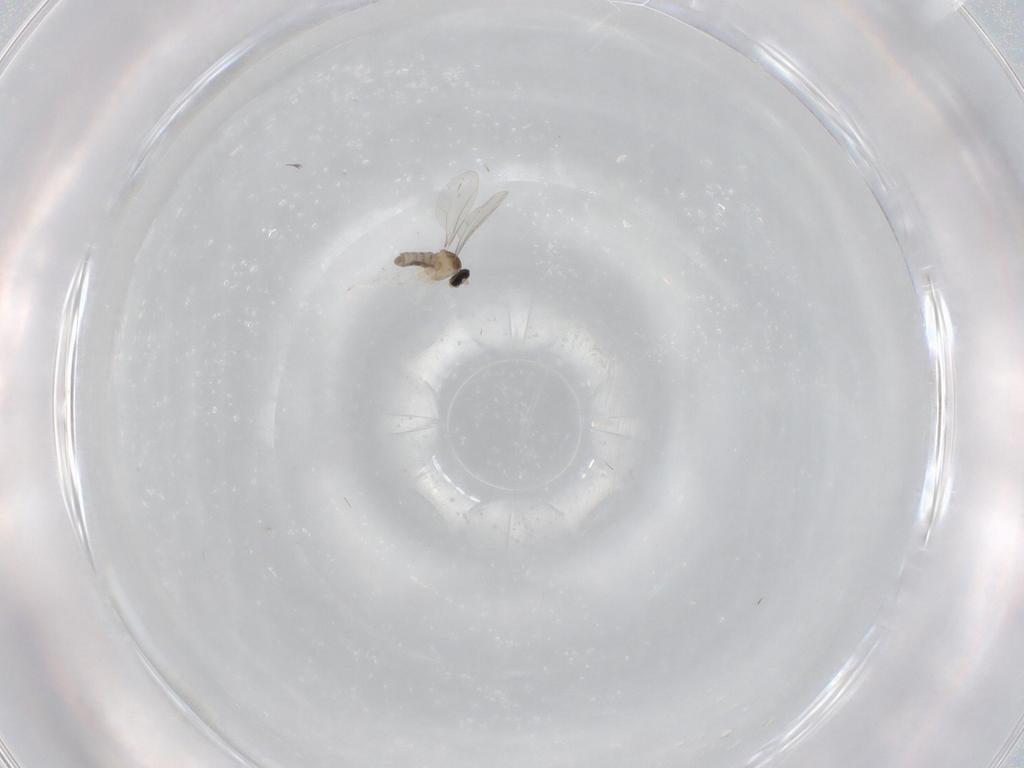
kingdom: Animalia
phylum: Arthropoda
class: Insecta
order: Diptera
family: Cecidomyiidae
